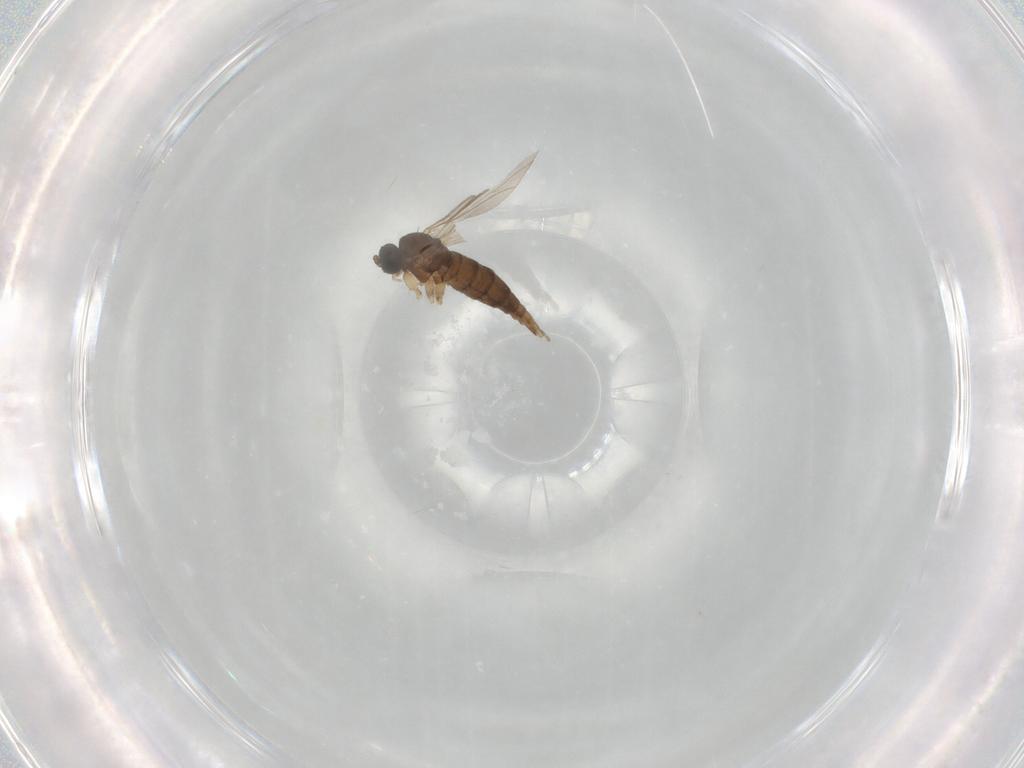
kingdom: Animalia
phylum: Arthropoda
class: Insecta
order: Diptera
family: Sciaridae
